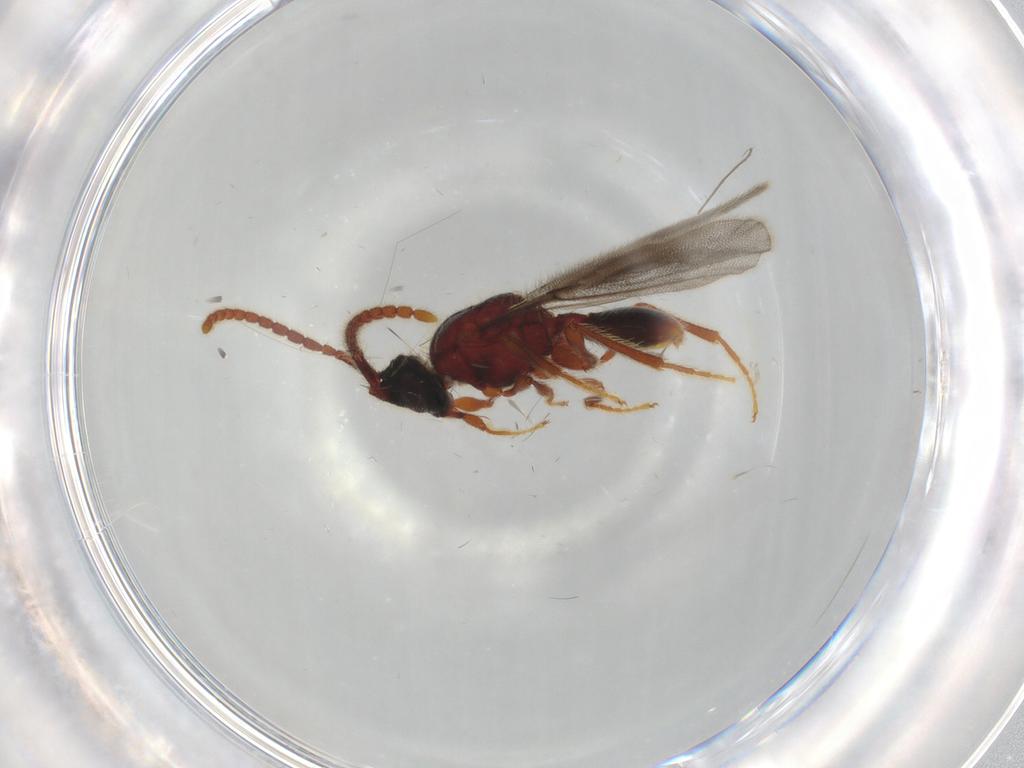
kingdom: Animalia
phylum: Arthropoda
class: Insecta
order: Hymenoptera
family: Diapriidae
